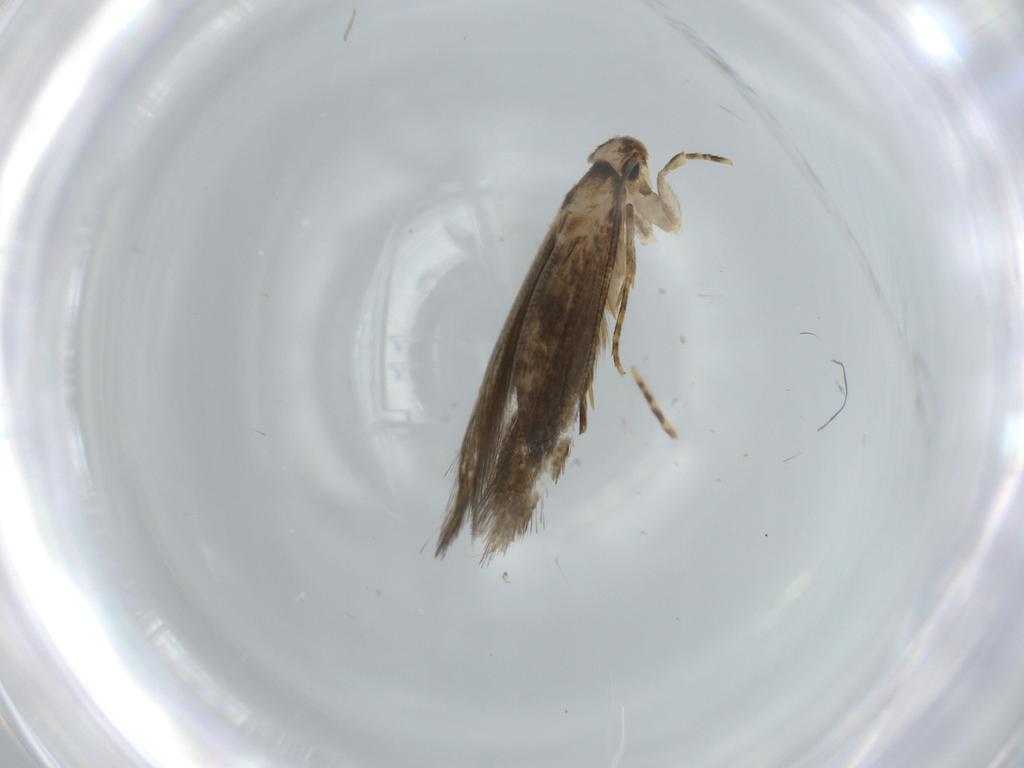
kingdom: Animalia
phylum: Arthropoda
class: Insecta
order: Lepidoptera
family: Tineidae
